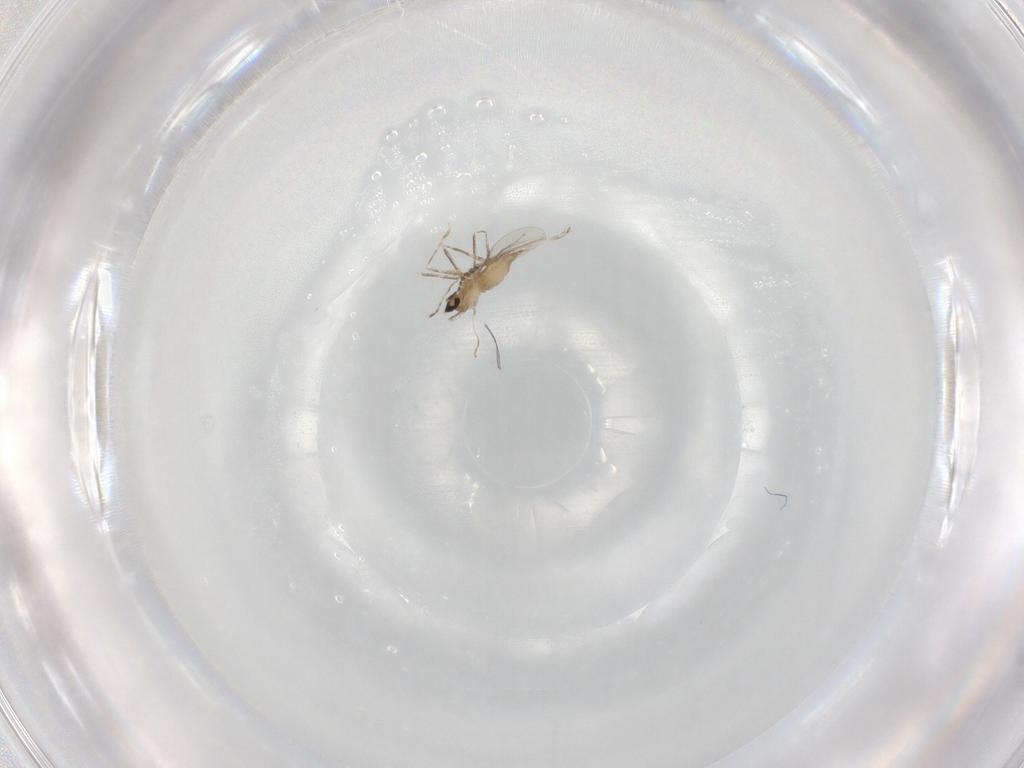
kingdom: Animalia
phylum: Arthropoda
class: Insecta
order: Diptera
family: Cecidomyiidae
